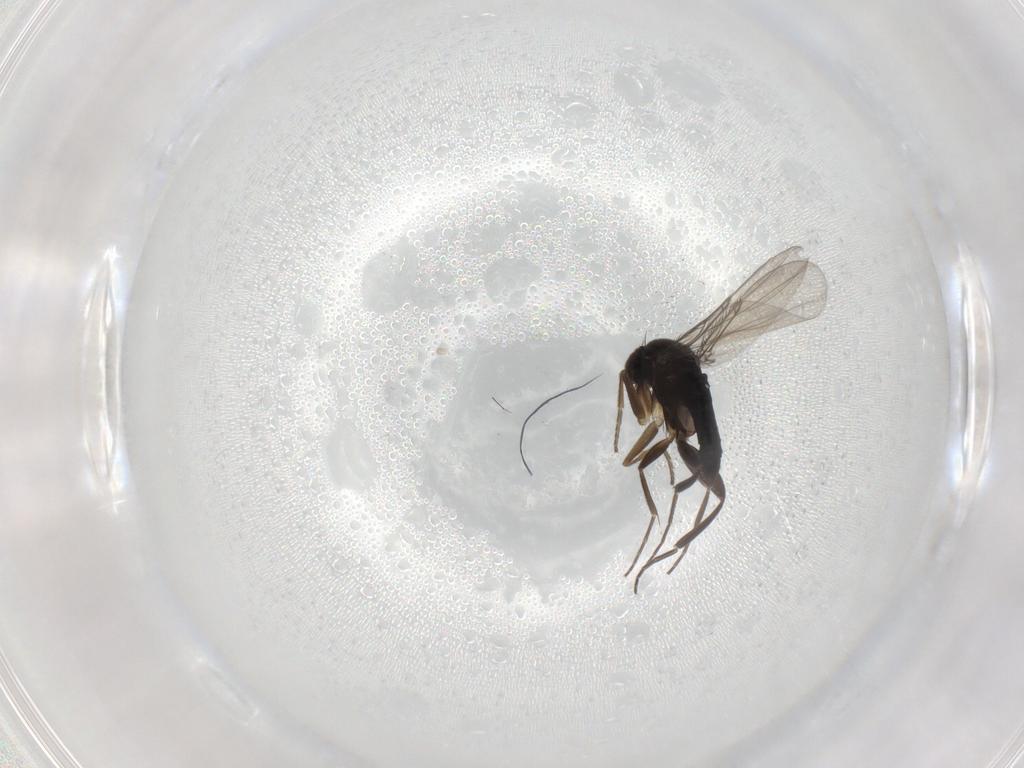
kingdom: Animalia
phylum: Arthropoda
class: Insecta
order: Diptera
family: Phoridae
